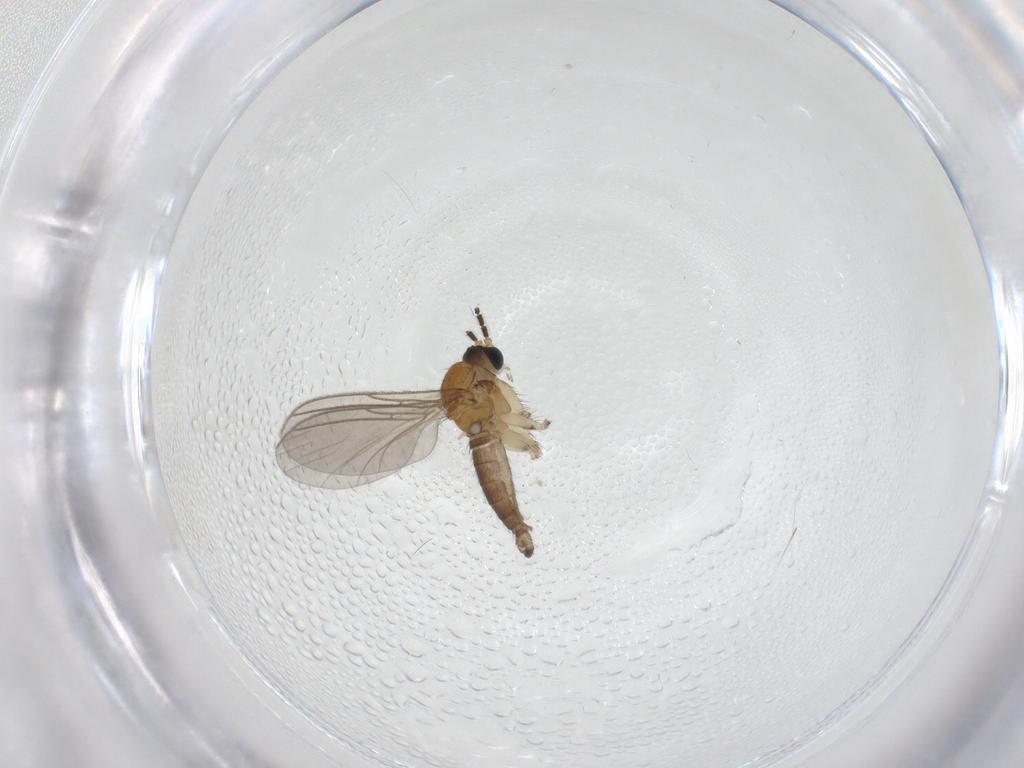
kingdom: Animalia
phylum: Arthropoda
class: Insecta
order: Diptera
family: Sciaridae
